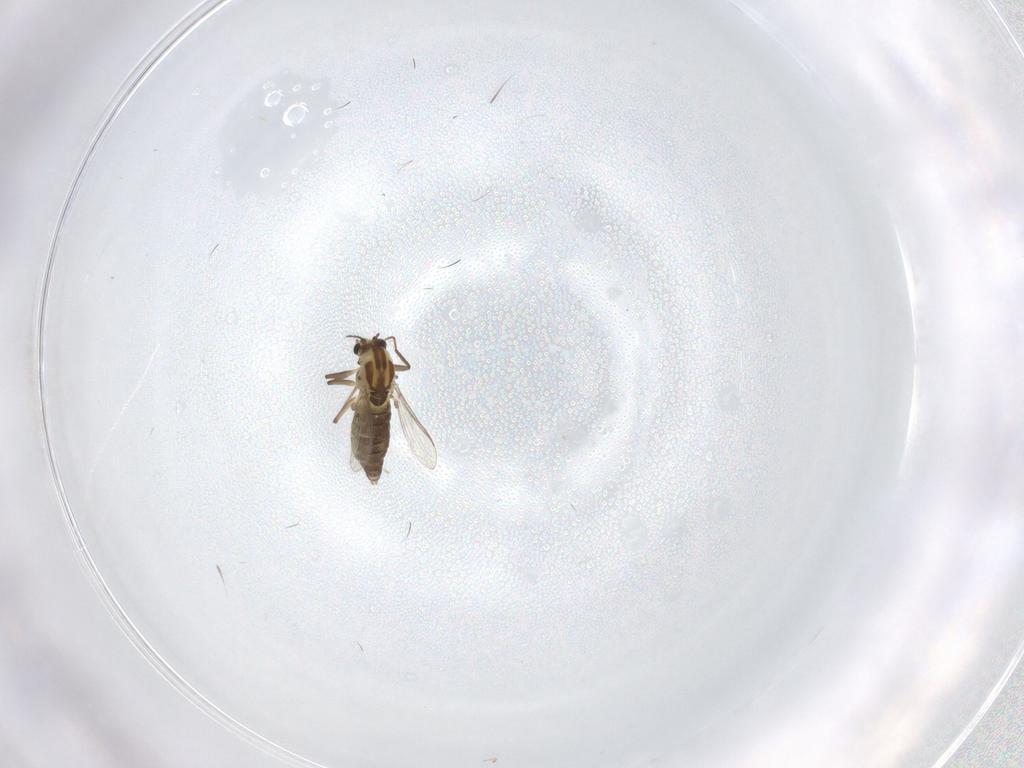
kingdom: Animalia
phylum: Arthropoda
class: Insecta
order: Diptera
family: Chironomidae
